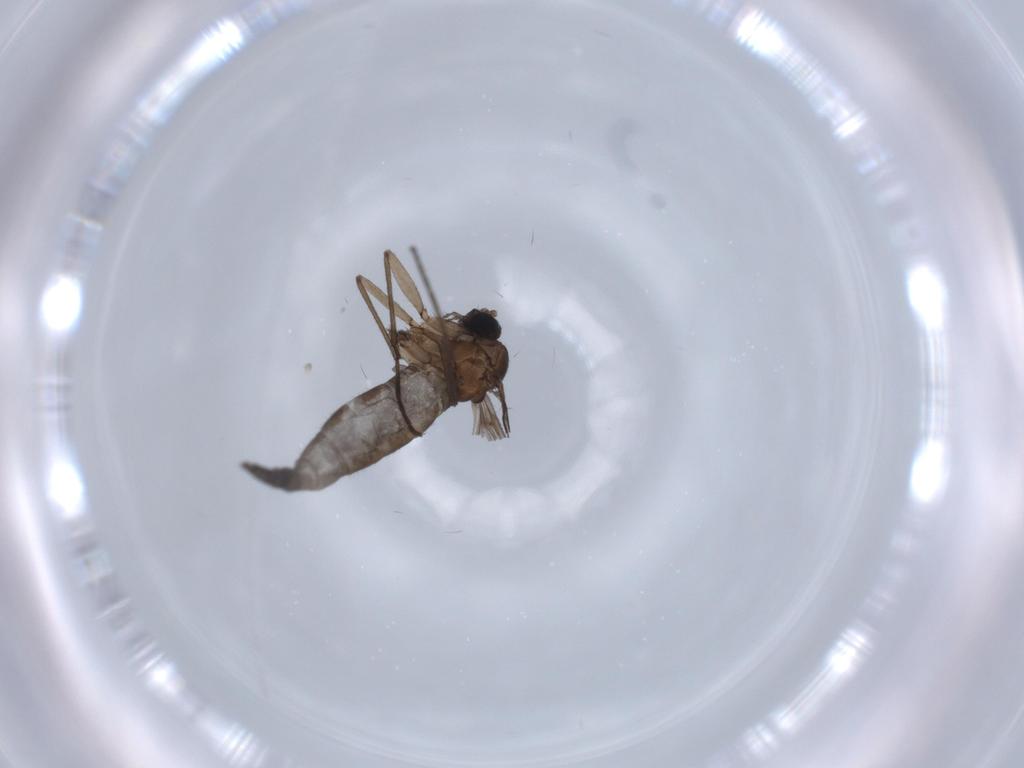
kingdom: Animalia
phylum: Arthropoda
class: Insecta
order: Diptera
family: Sciaridae
